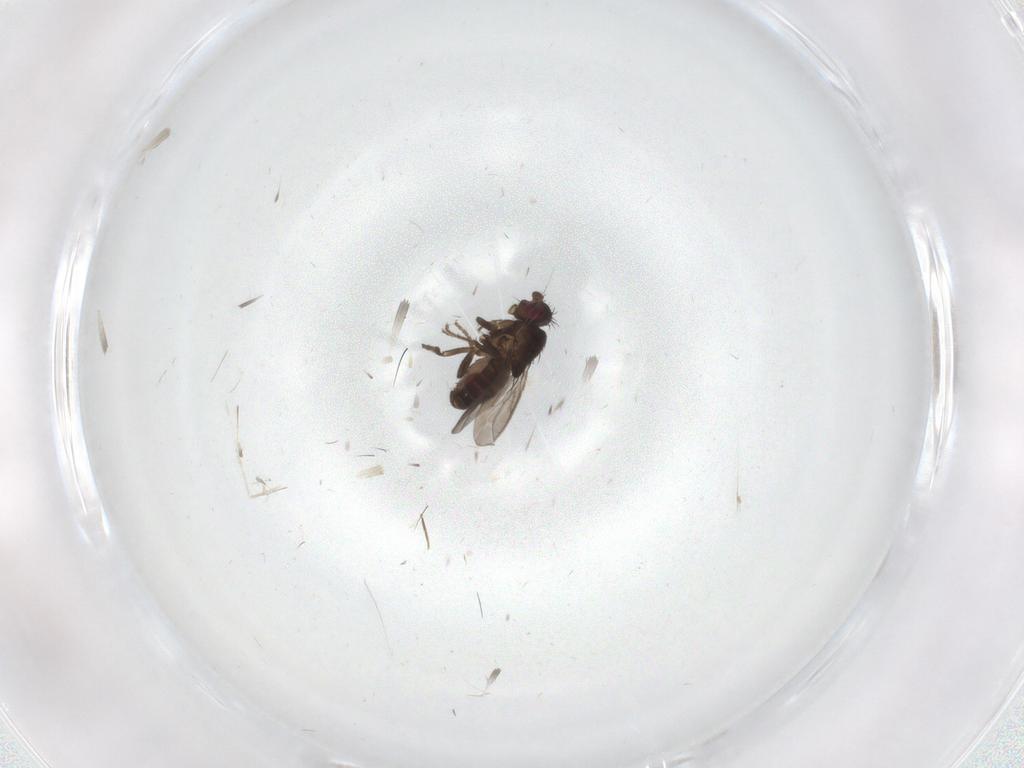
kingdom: Animalia
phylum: Arthropoda
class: Insecta
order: Diptera
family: Cecidomyiidae
